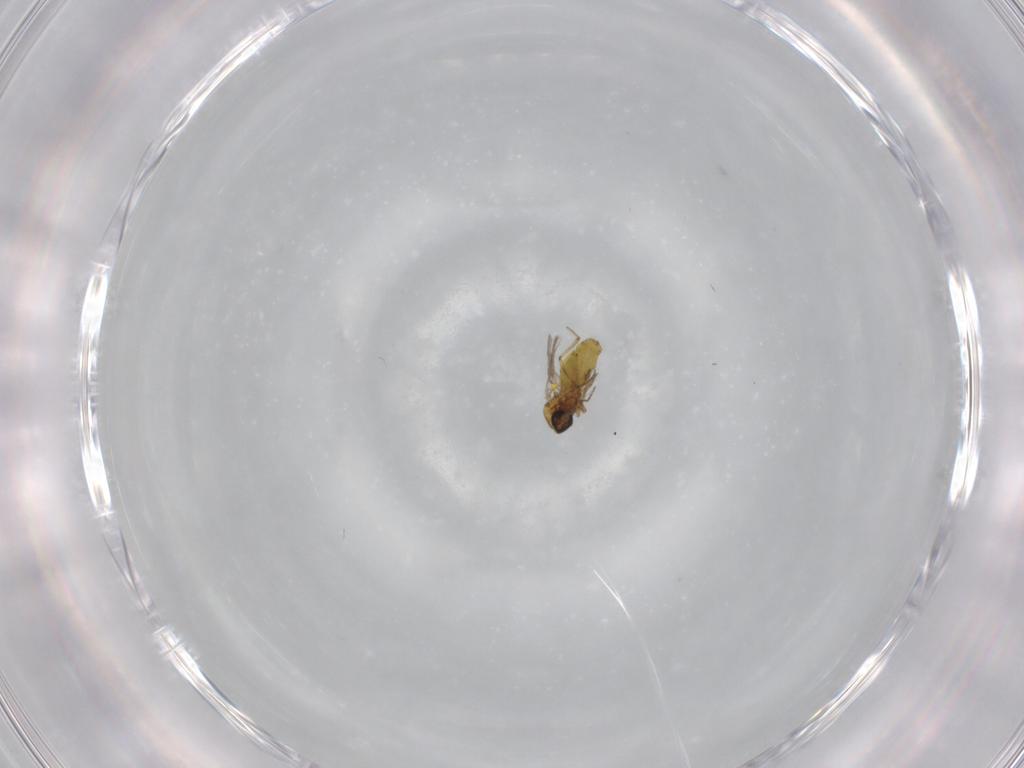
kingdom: Animalia
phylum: Arthropoda
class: Insecta
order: Diptera
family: Ceratopogonidae
